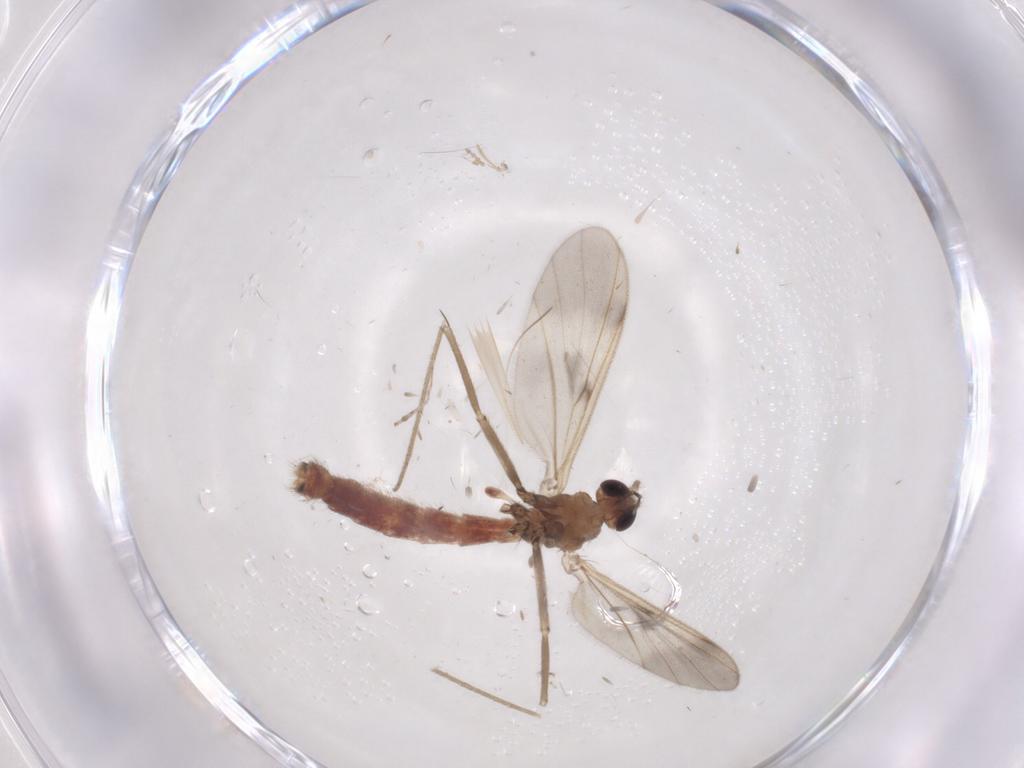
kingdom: Animalia
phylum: Arthropoda
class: Insecta
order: Diptera
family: Ceratopogonidae
